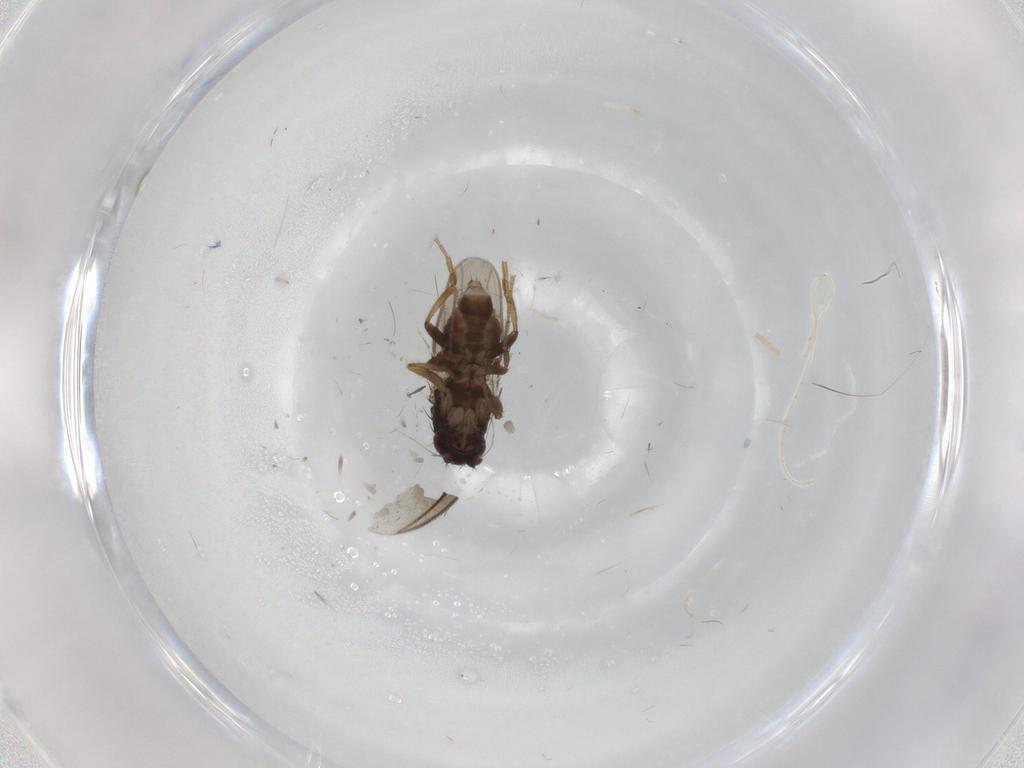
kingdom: Animalia
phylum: Arthropoda
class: Insecta
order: Diptera
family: Sphaeroceridae
